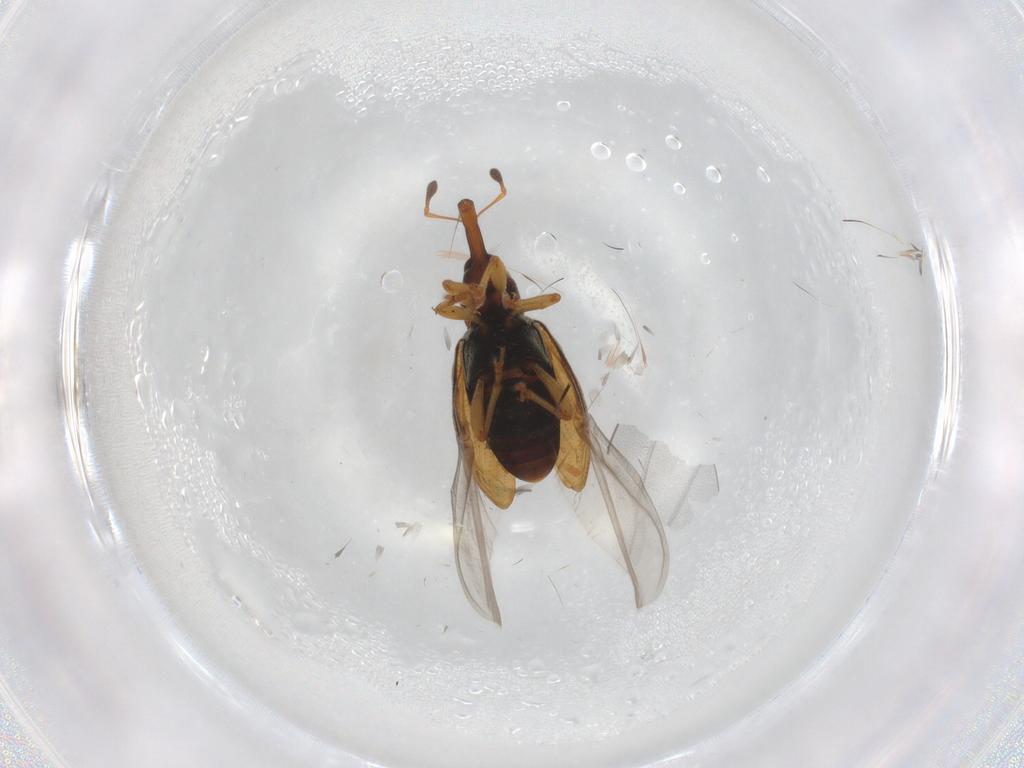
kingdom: Animalia
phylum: Arthropoda
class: Insecta
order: Coleoptera
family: Curculionidae
